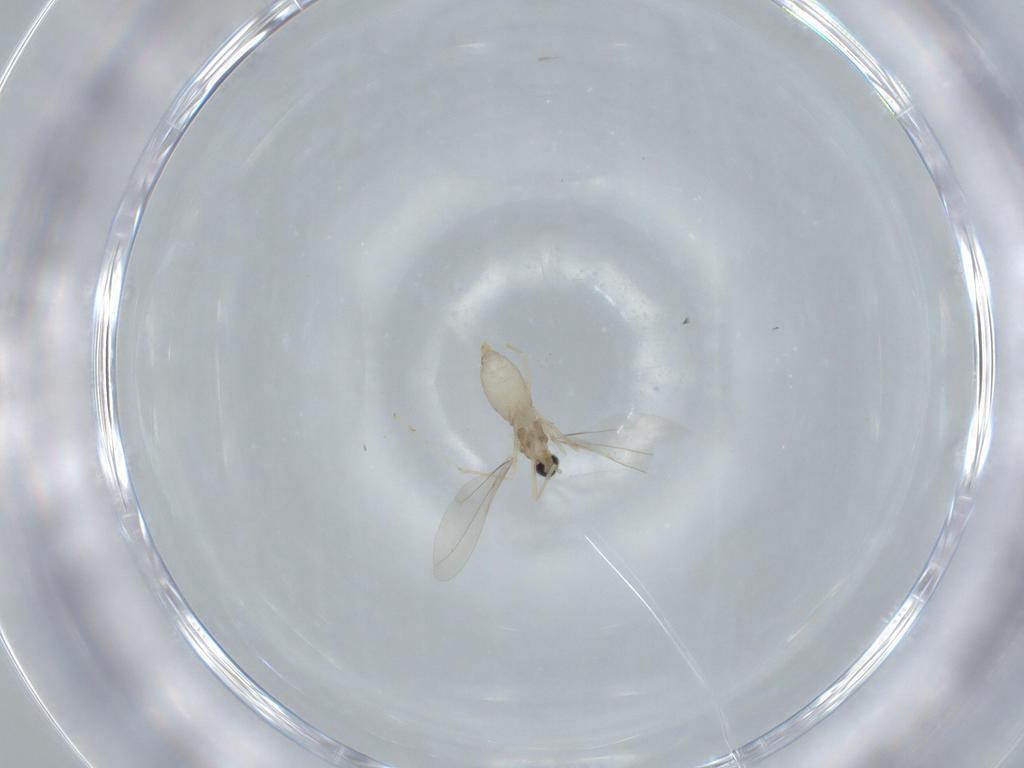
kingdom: Animalia
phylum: Arthropoda
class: Insecta
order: Diptera
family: Cecidomyiidae
